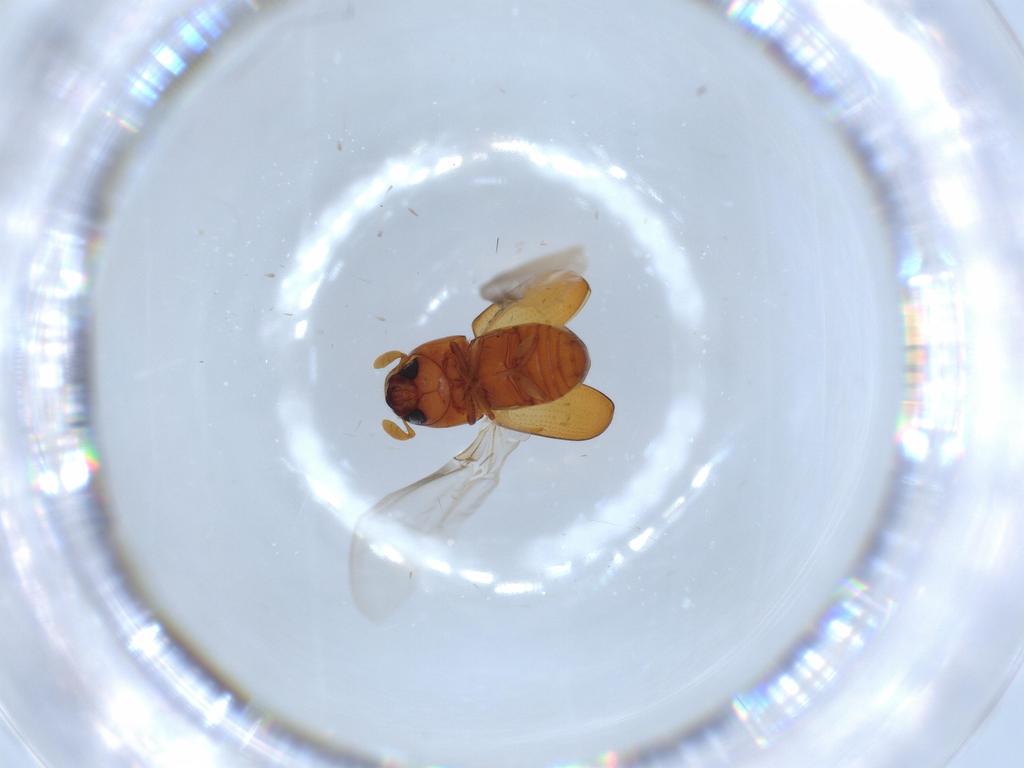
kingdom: Animalia
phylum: Arthropoda
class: Insecta
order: Coleoptera
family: Curculionidae
